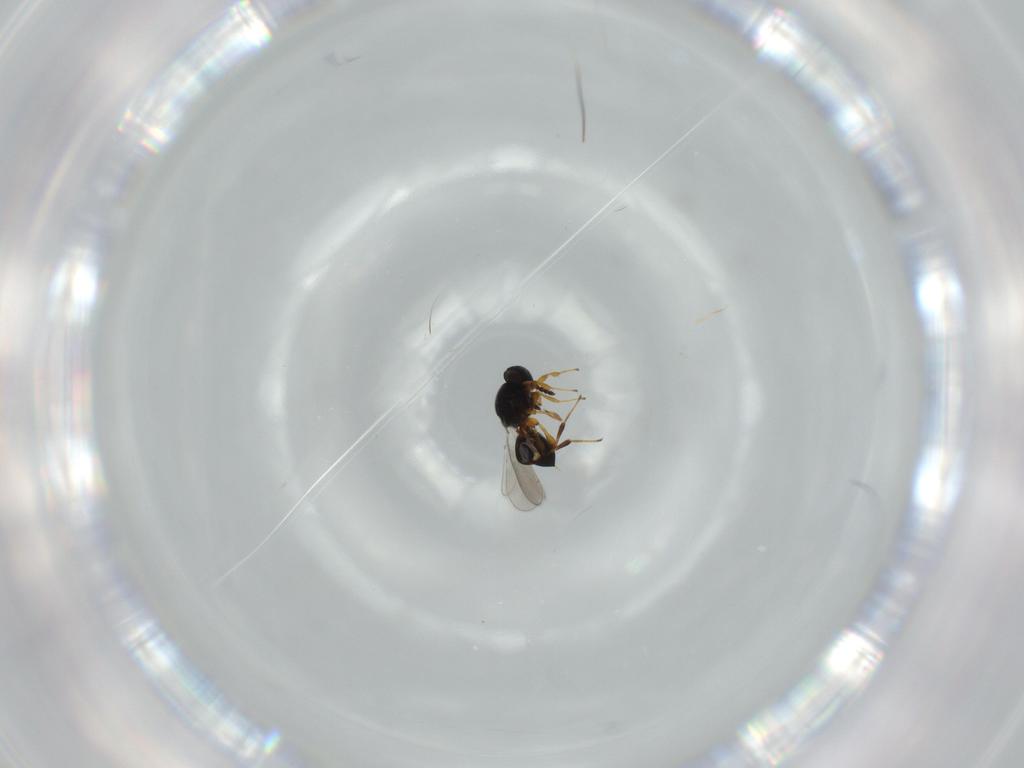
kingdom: Animalia
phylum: Arthropoda
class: Insecta
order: Hymenoptera
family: Platygastridae
